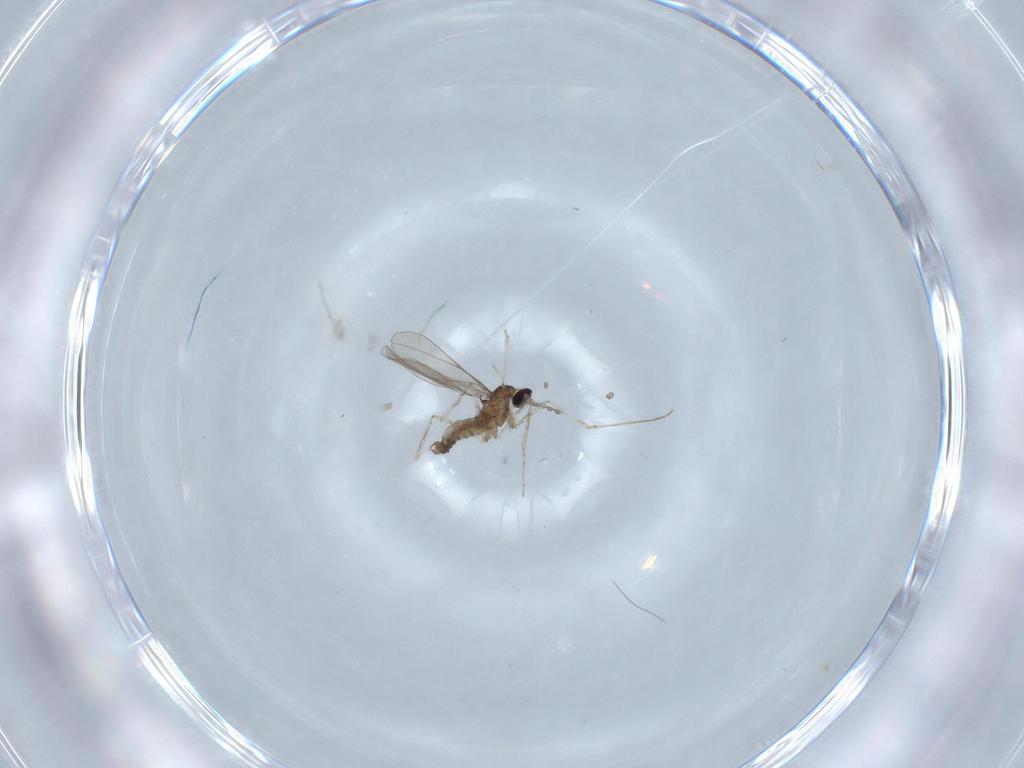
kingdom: Animalia
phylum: Arthropoda
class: Insecta
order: Diptera
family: Cecidomyiidae
